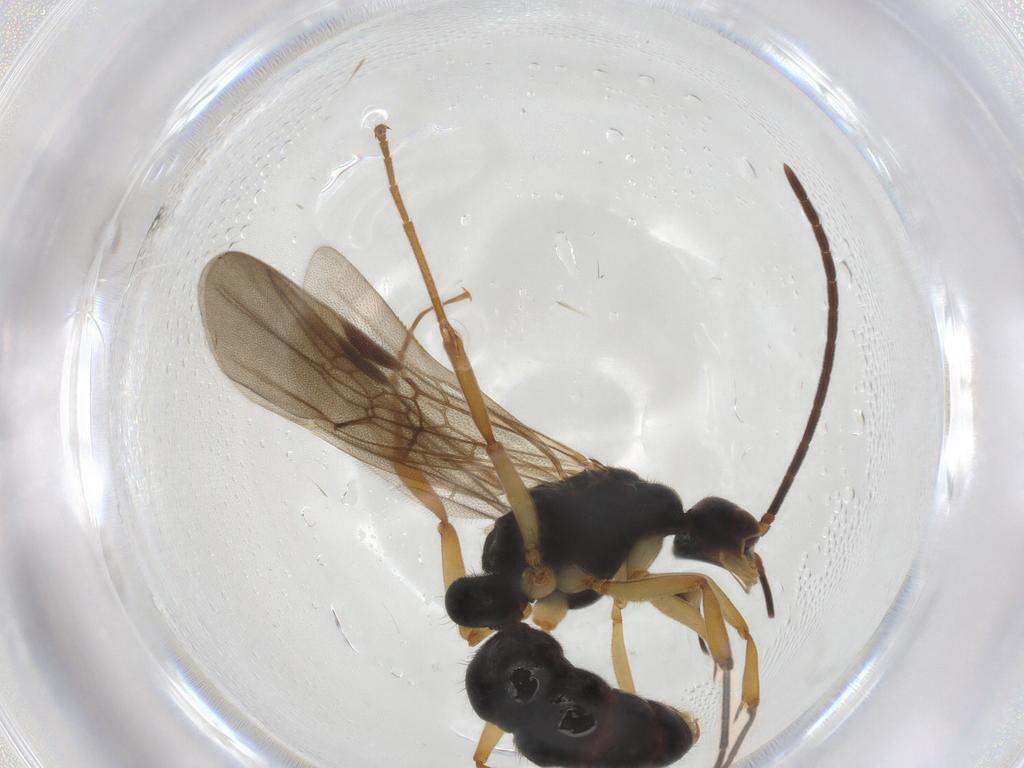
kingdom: Animalia
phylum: Arthropoda
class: Insecta
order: Hymenoptera
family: Formicidae
